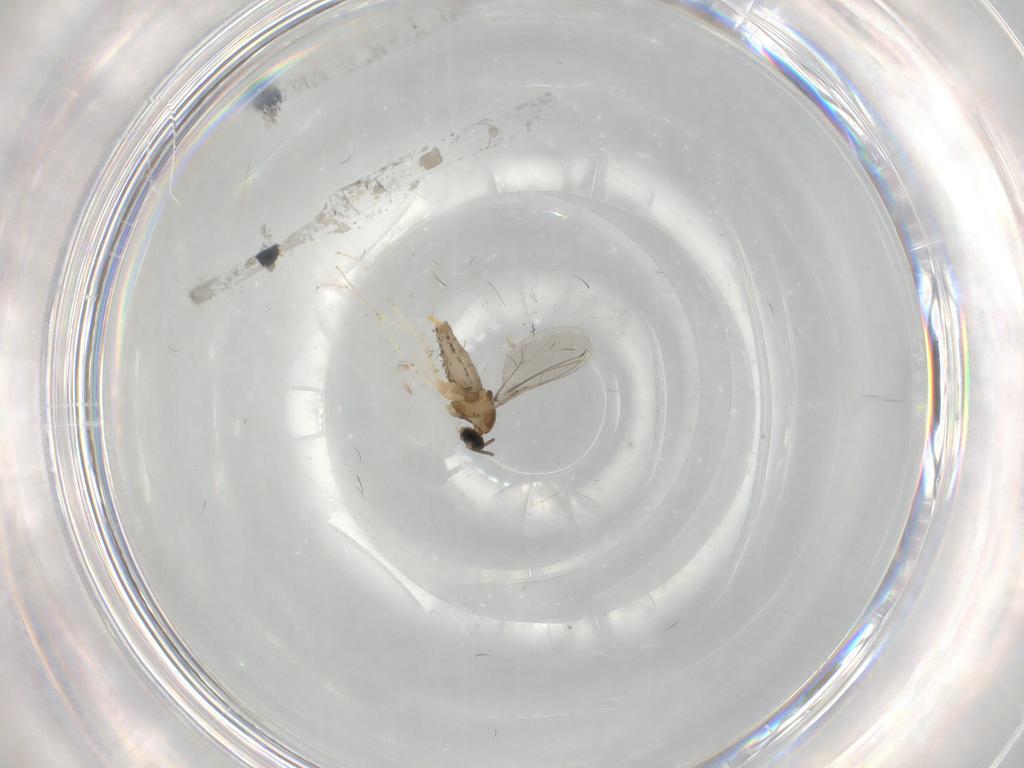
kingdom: Animalia
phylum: Arthropoda
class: Insecta
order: Diptera
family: Cecidomyiidae
